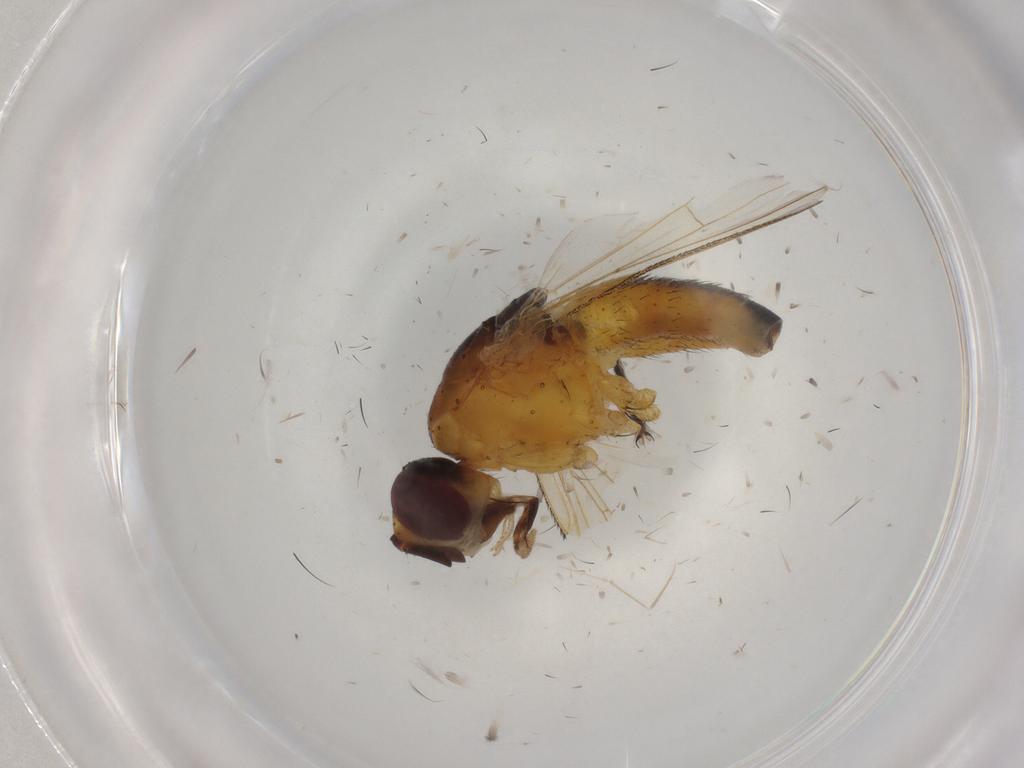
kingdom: Animalia
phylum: Arthropoda
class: Insecta
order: Diptera
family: Muscidae
